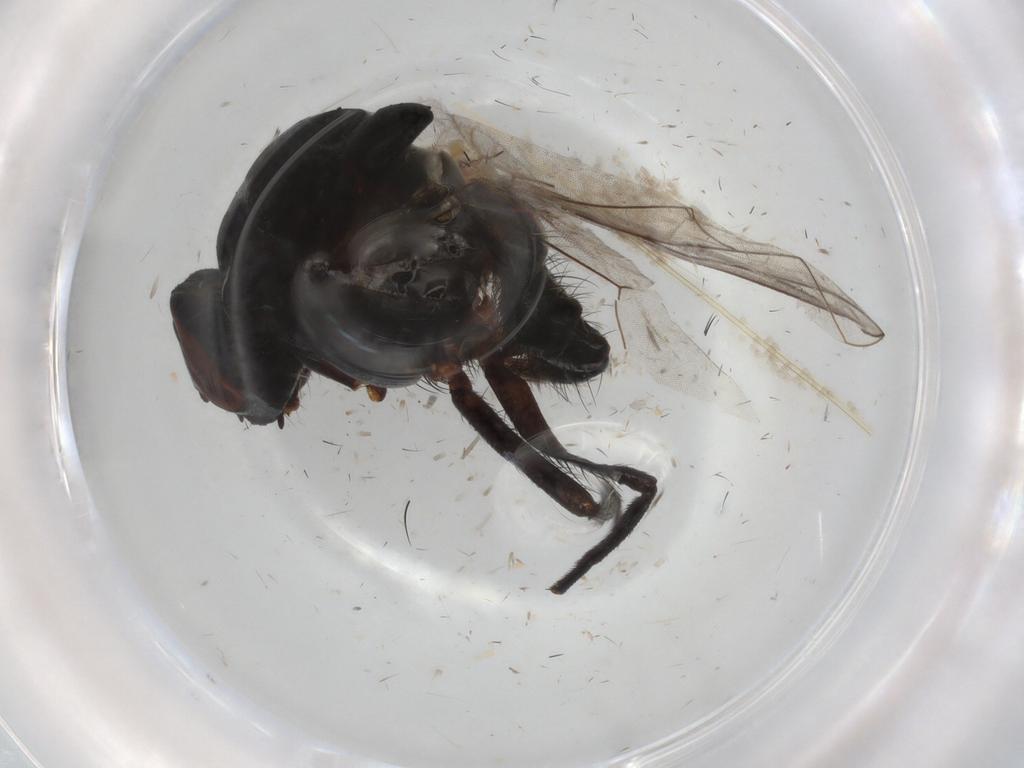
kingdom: Animalia
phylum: Arthropoda
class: Insecta
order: Diptera
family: Anthomyiidae
